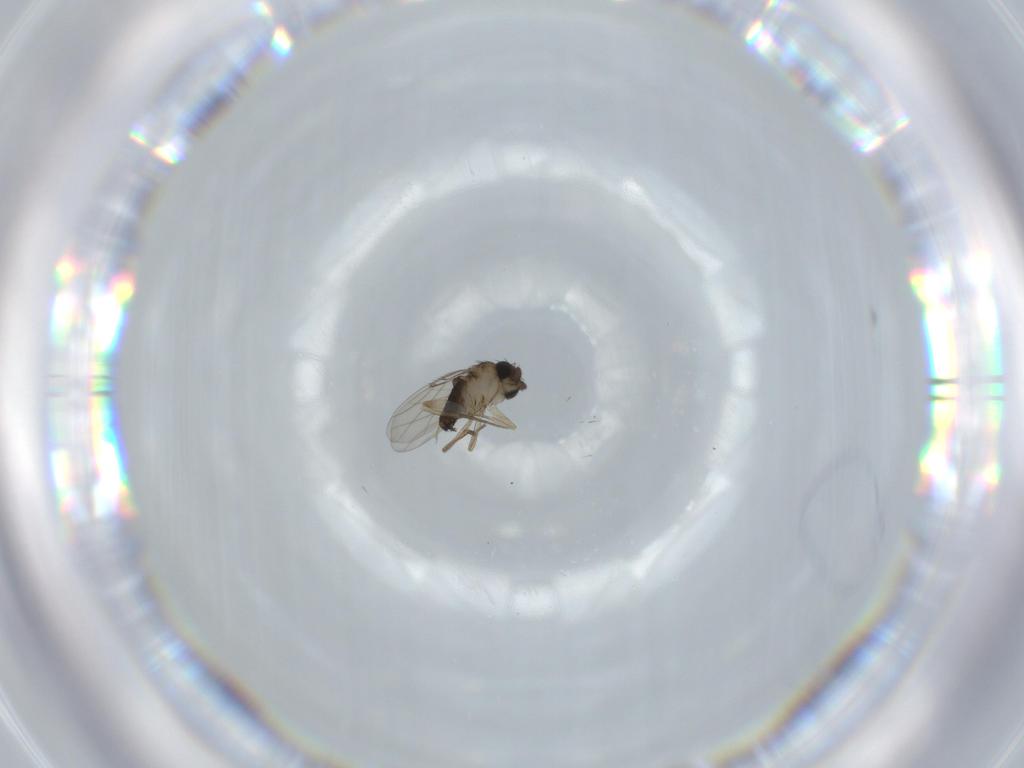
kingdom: Animalia
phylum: Arthropoda
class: Insecta
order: Diptera
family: Phoridae
